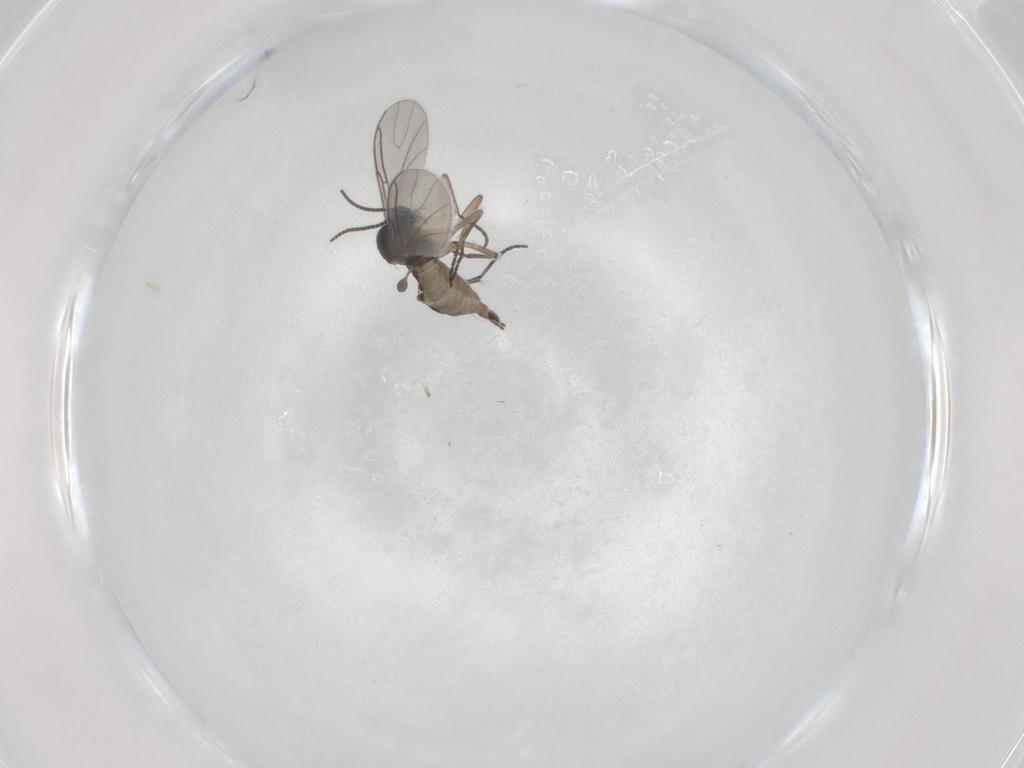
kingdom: Animalia
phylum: Arthropoda
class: Insecta
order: Diptera
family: Sciaridae
